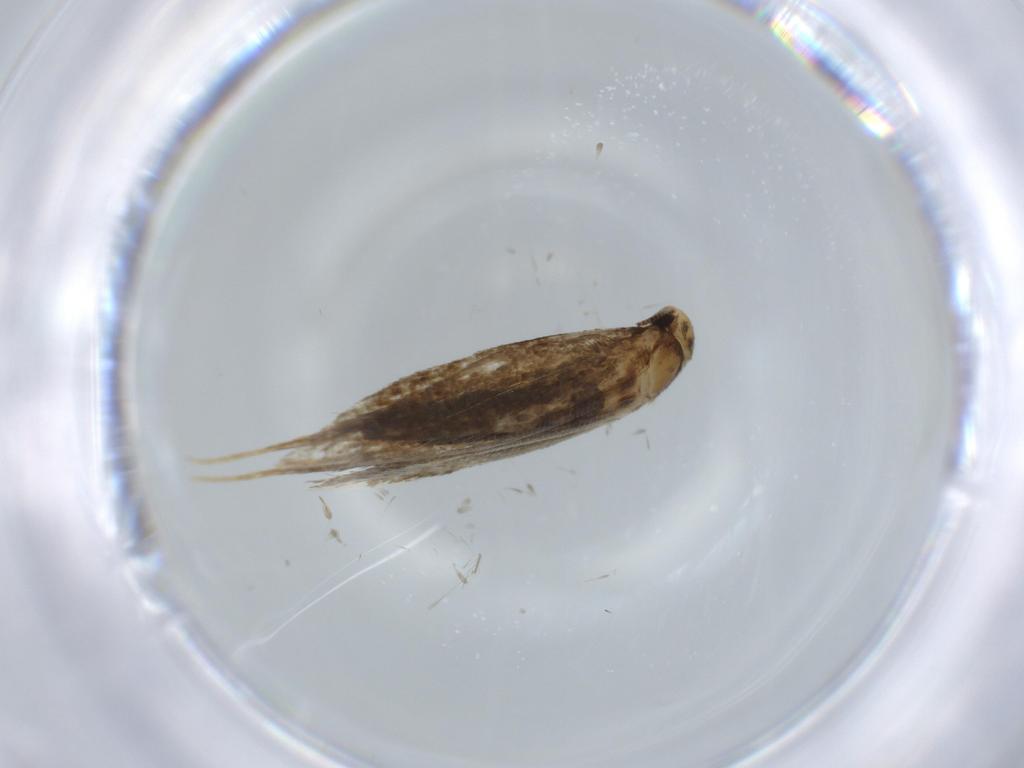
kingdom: Animalia
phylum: Arthropoda
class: Insecta
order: Lepidoptera
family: Tineidae
